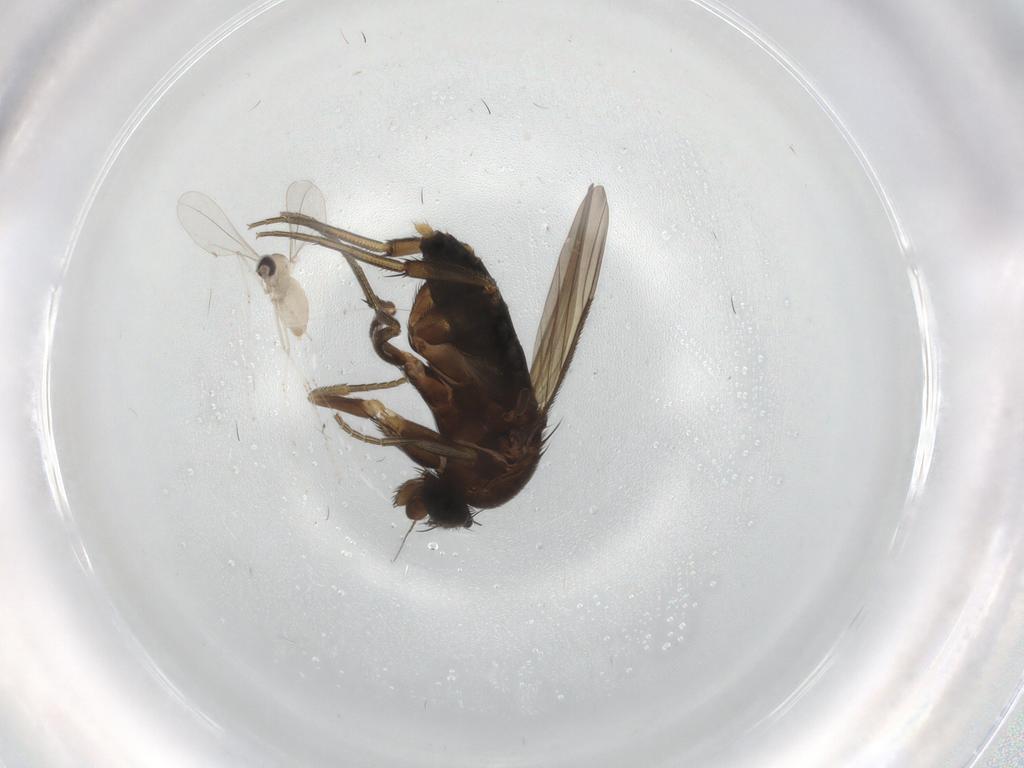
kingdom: Animalia
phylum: Arthropoda
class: Insecta
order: Diptera
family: Phoridae
